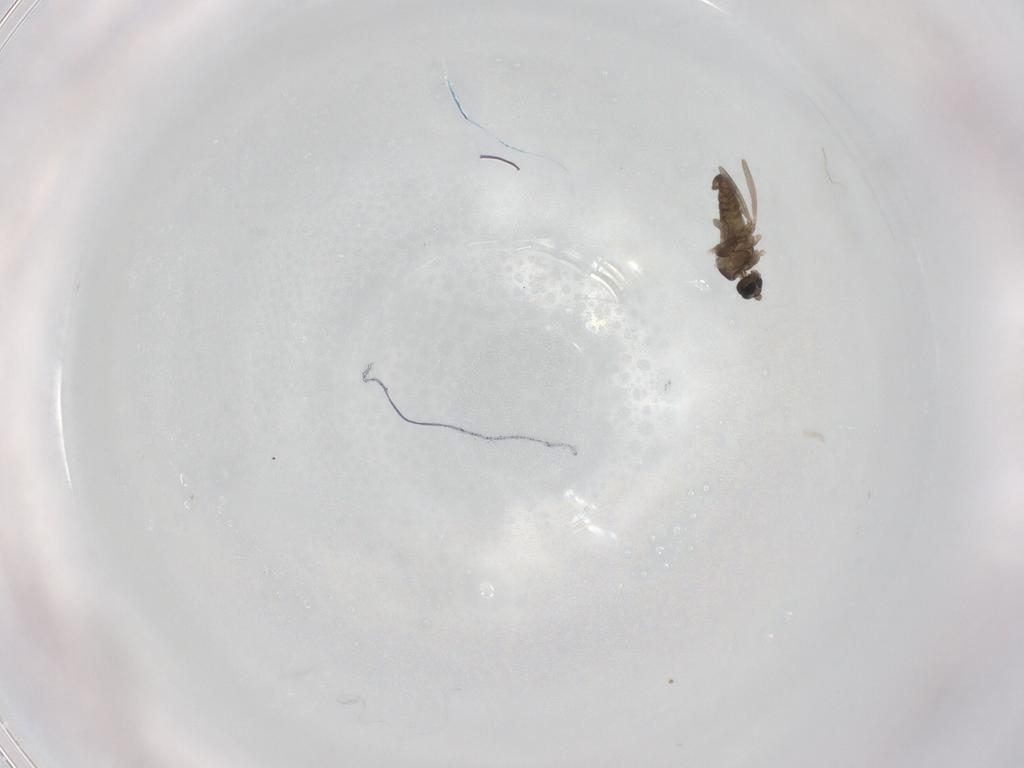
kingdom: Animalia
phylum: Arthropoda
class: Insecta
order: Diptera
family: Cecidomyiidae
